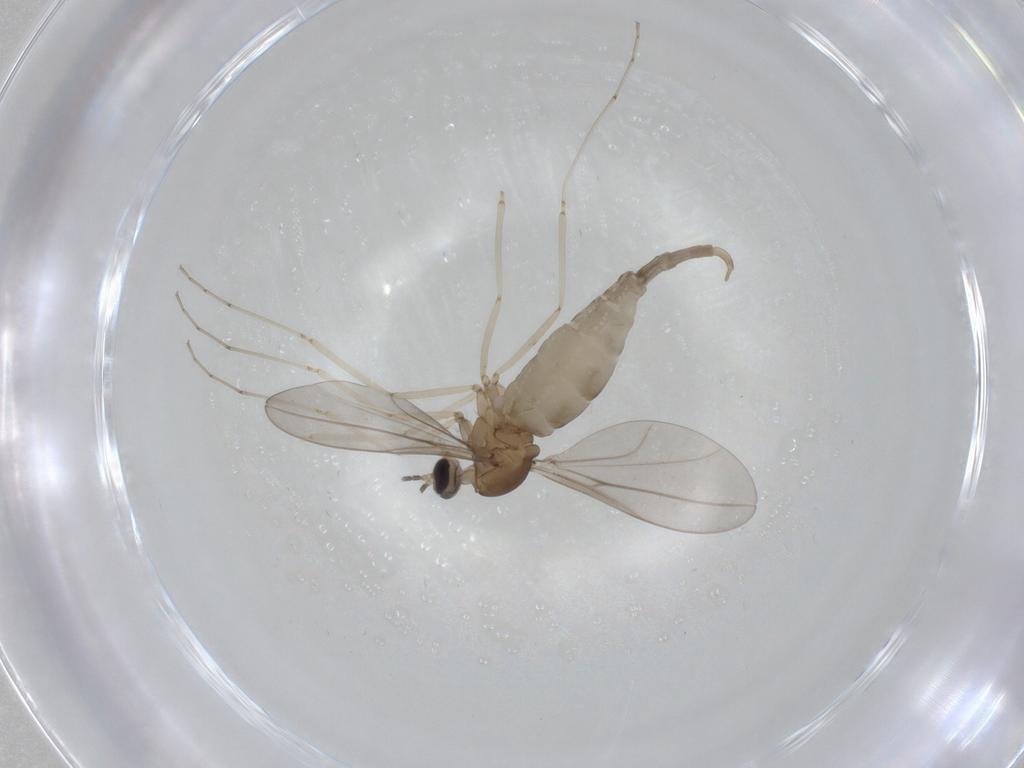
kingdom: Animalia
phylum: Arthropoda
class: Insecta
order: Diptera
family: Cecidomyiidae
